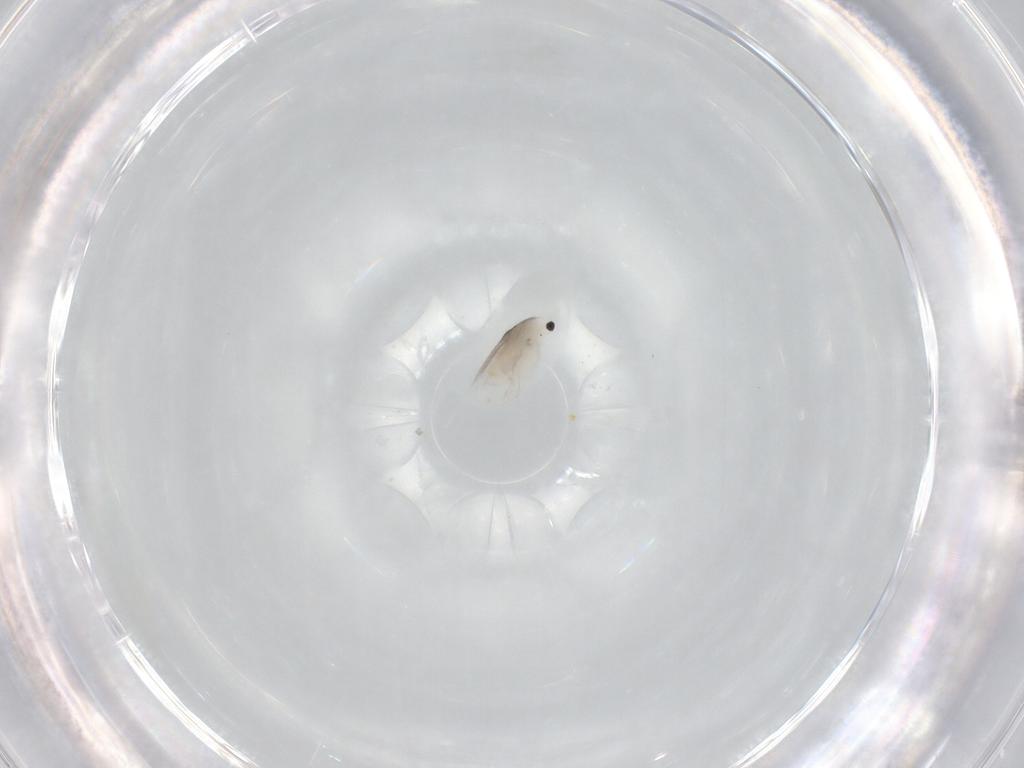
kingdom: Animalia
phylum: Arthropoda
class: Branchiopoda
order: Diplostraca
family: Daphniidae
